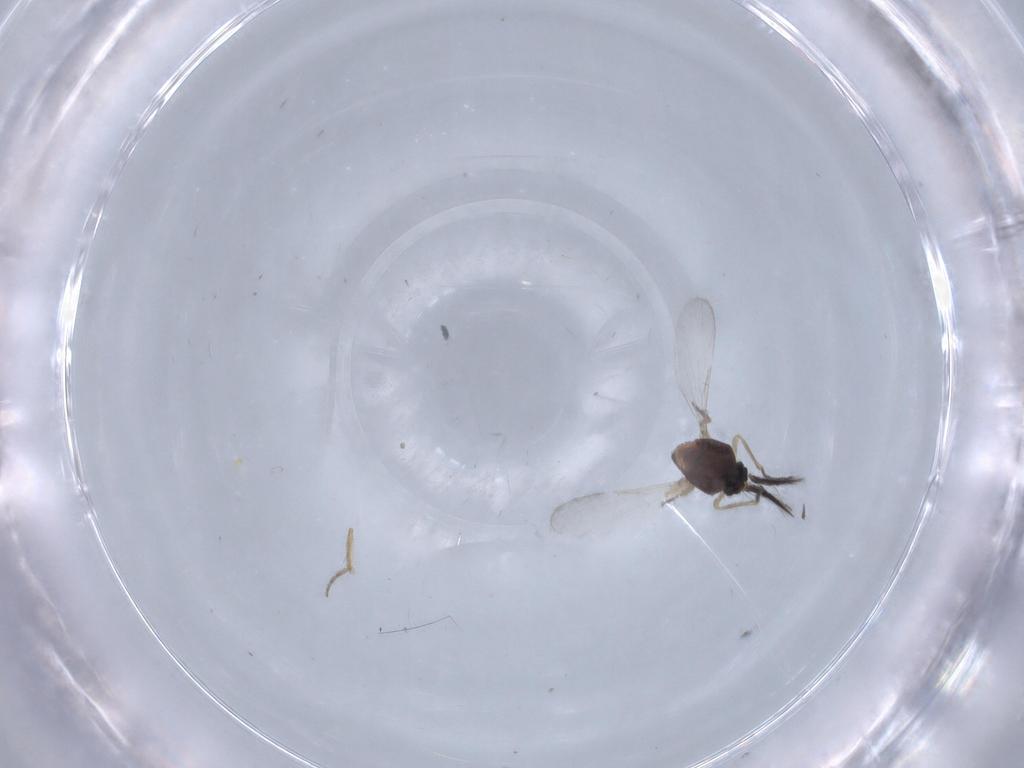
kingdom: Animalia
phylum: Arthropoda
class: Insecta
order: Diptera
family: Ceratopogonidae
